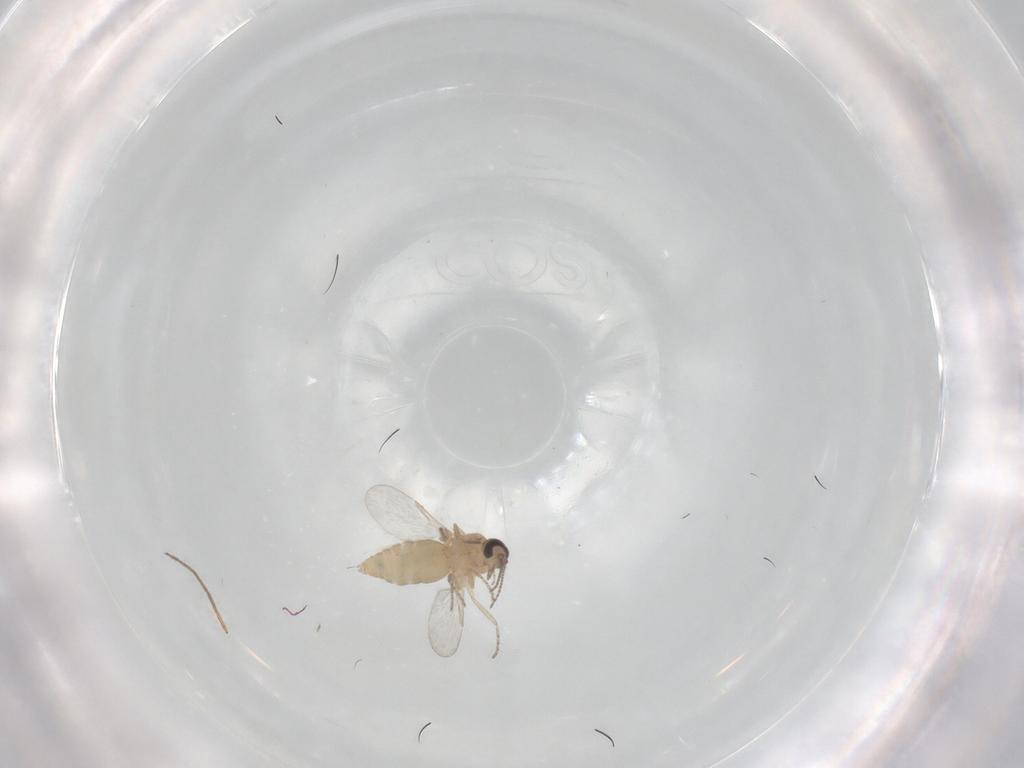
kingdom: Animalia
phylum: Arthropoda
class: Insecta
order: Diptera
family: Ceratopogonidae
